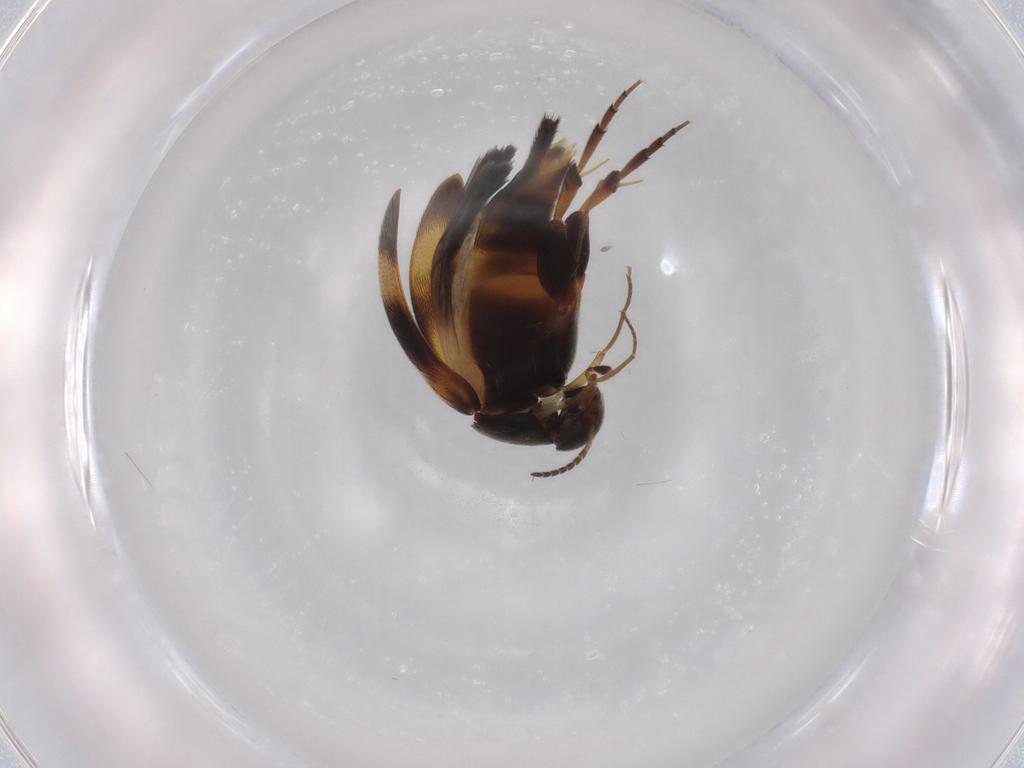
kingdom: Animalia
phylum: Arthropoda
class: Insecta
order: Coleoptera
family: Mordellidae
